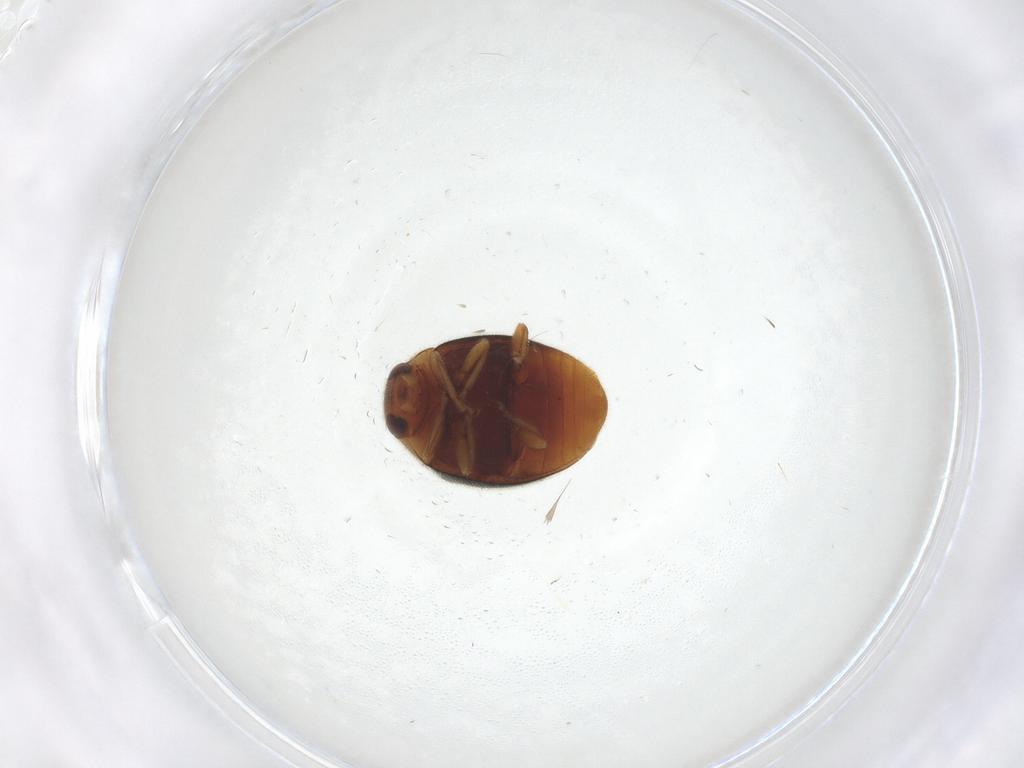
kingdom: Animalia
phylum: Arthropoda
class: Insecta
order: Coleoptera
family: Coccinellidae
